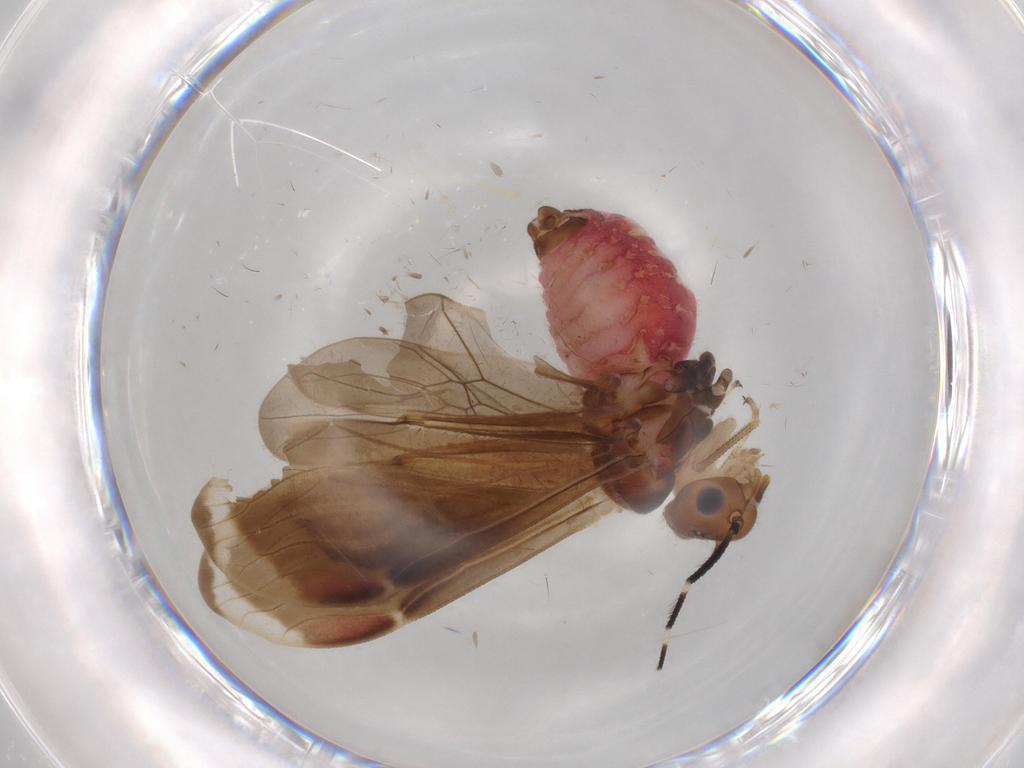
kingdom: Animalia
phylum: Arthropoda
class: Insecta
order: Psocodea
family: Amphipsocidae
